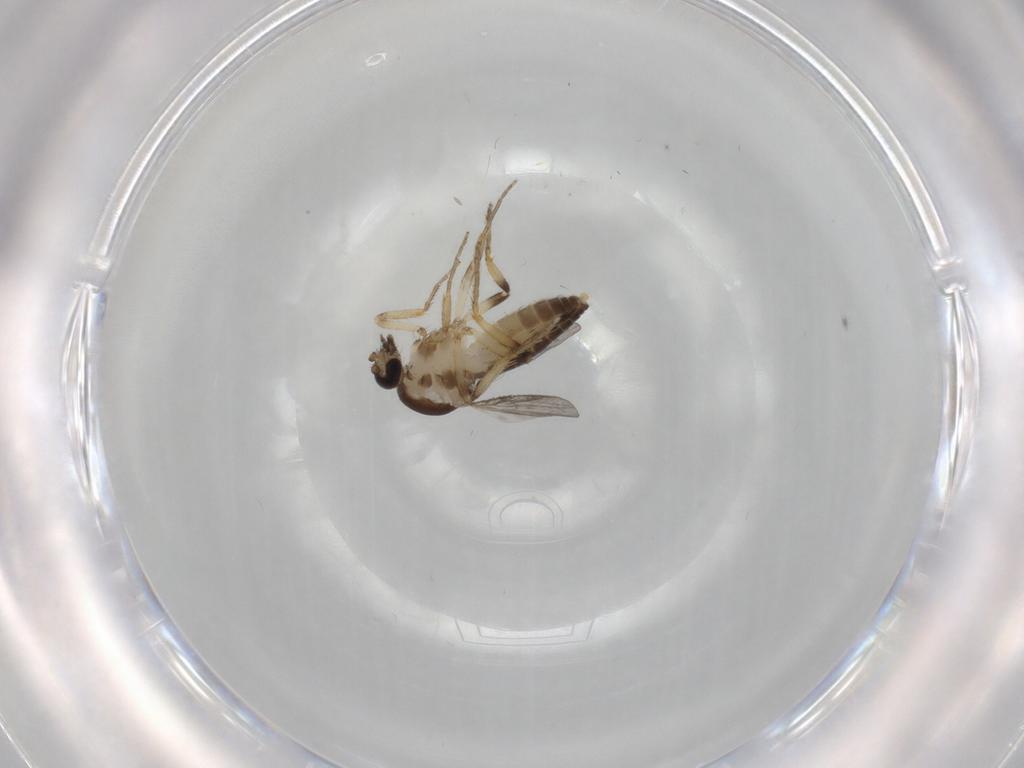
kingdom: Animalia
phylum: Arthropoda
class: Insecta
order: Diptera
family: Ceratopogonidae
